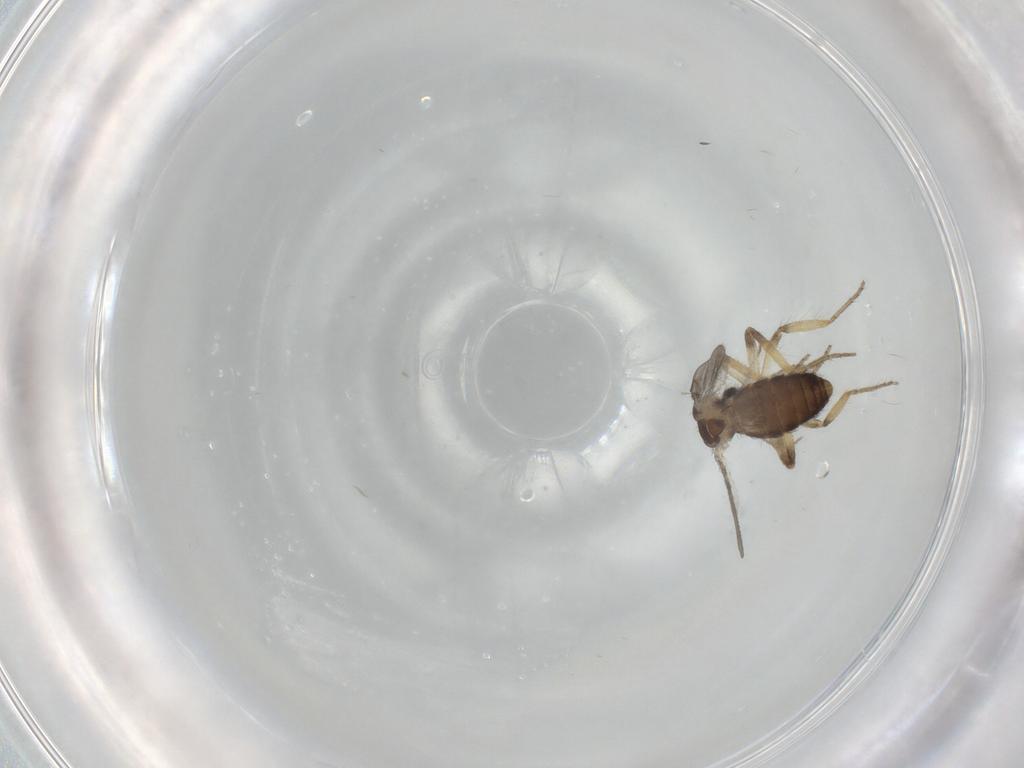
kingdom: Animalia
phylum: Arthropoda
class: Insecta
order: Diptera
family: Ceratopogonidae
